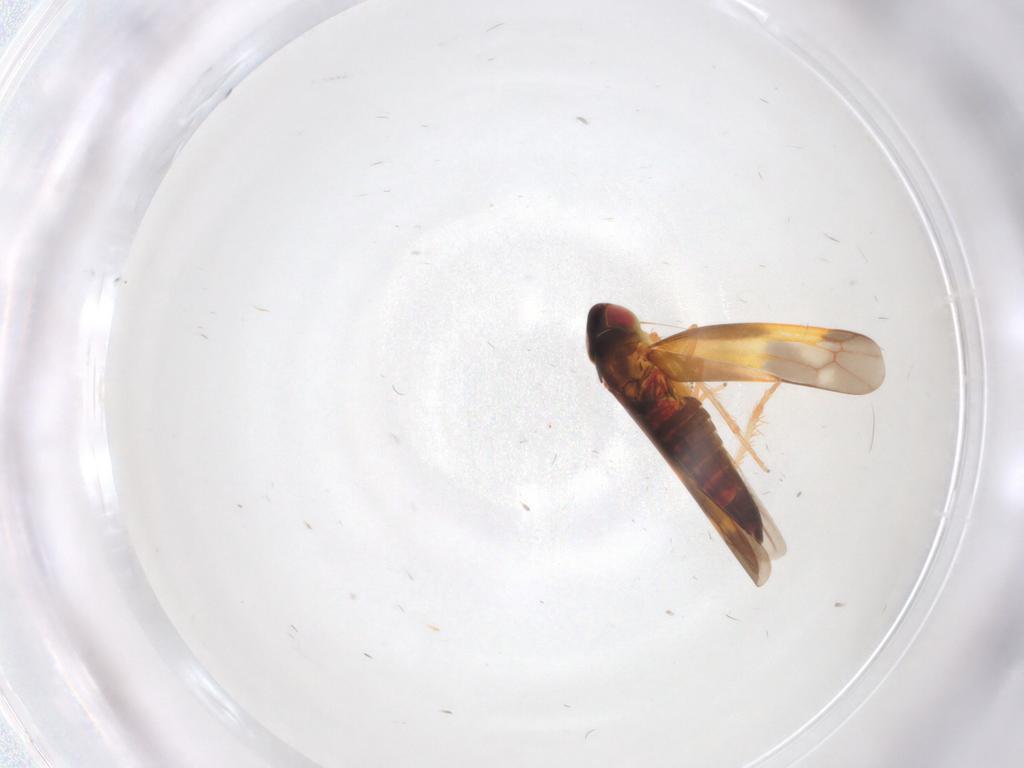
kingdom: Animalia
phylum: Arthropoda
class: Insecta
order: Hemiptera
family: Cicadellidae
